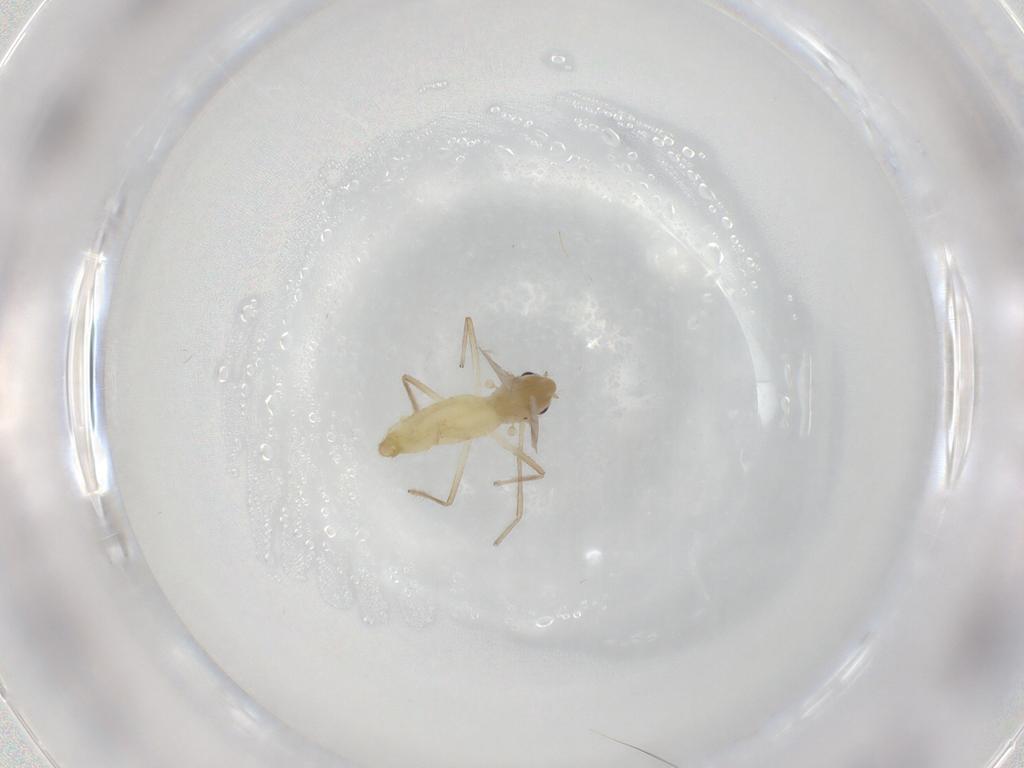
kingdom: Animalia
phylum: Arthropoda
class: Insecta
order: Diptera
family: Chironomidae
